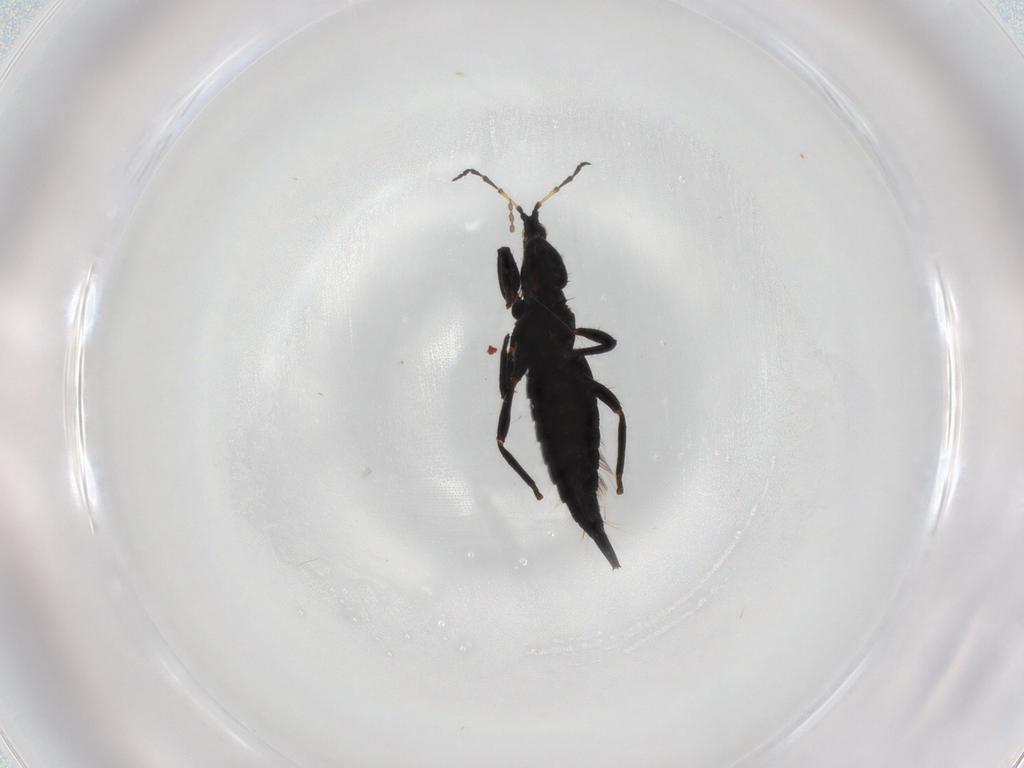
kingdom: Animalia
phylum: Arthropoda
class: Insecta
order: Thysanoptera
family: Phlaeothripidae
